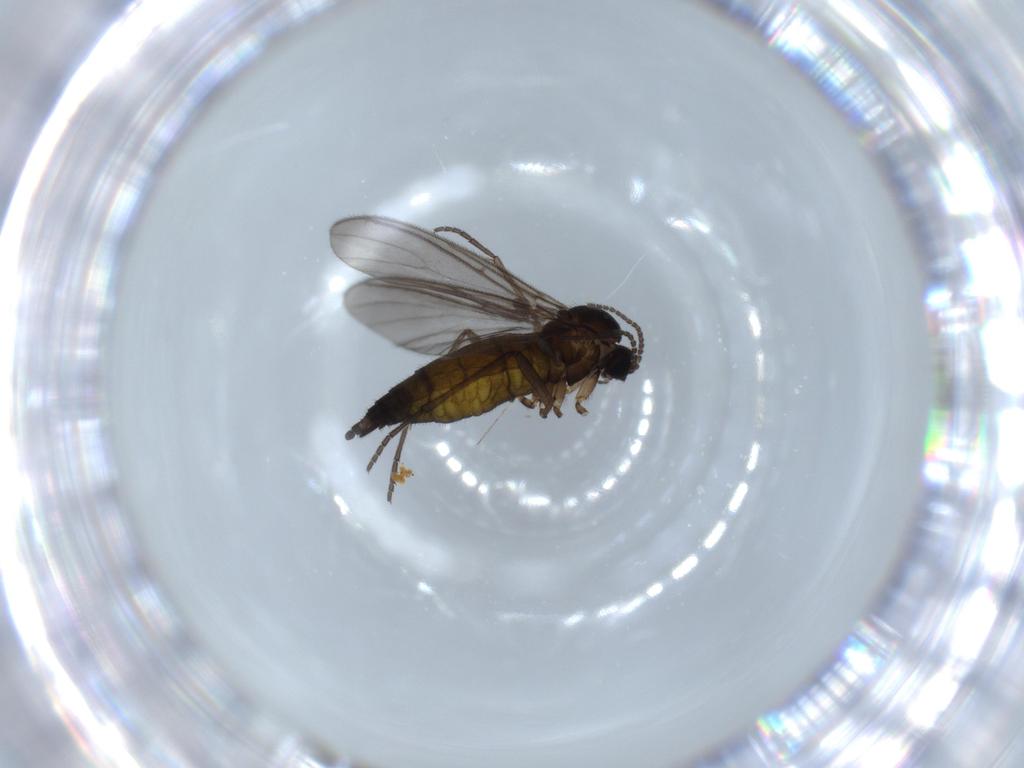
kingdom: Animalia
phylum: Arthropoda
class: Insecta
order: Diptera
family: Sciaridae
